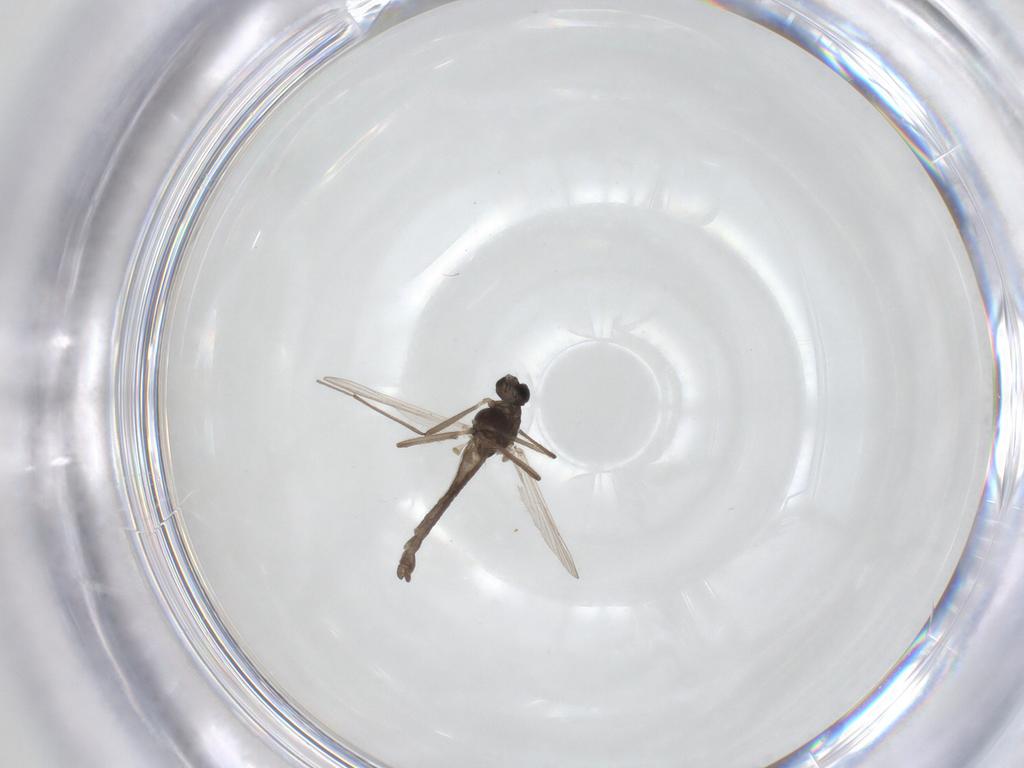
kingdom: Animalia
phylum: Arthropoda
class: Insecta
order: Diptera
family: Chironomidae
